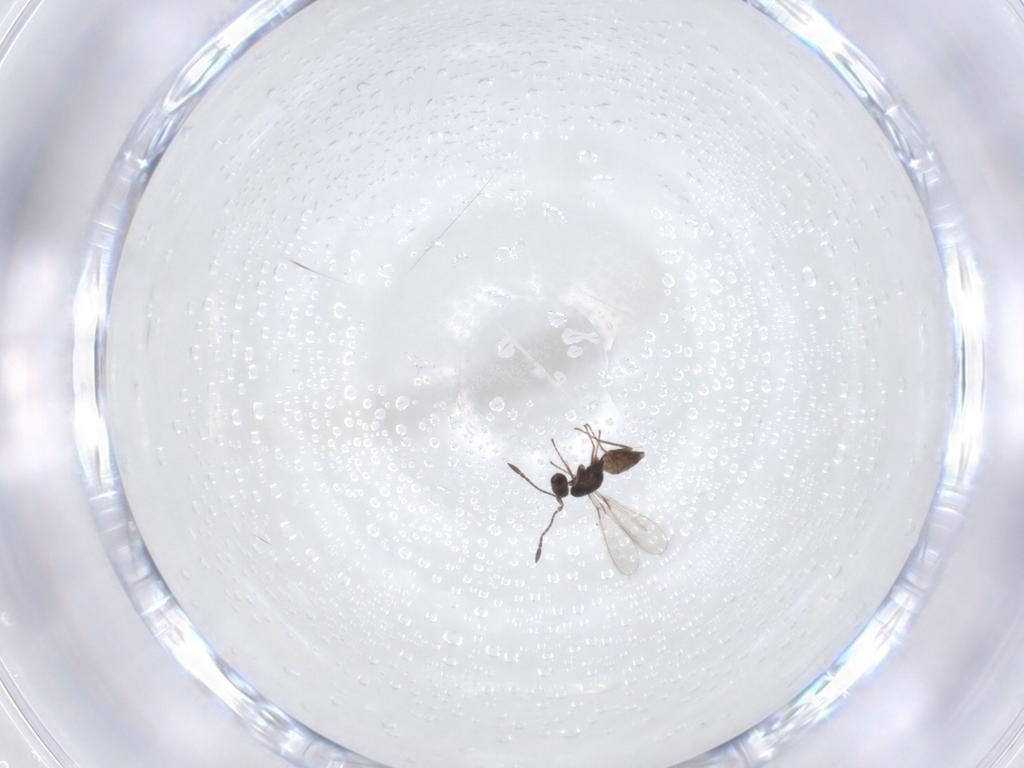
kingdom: Animalia
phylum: Arthropoda
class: Insecta
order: Hymenoptera
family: Mymaridae
